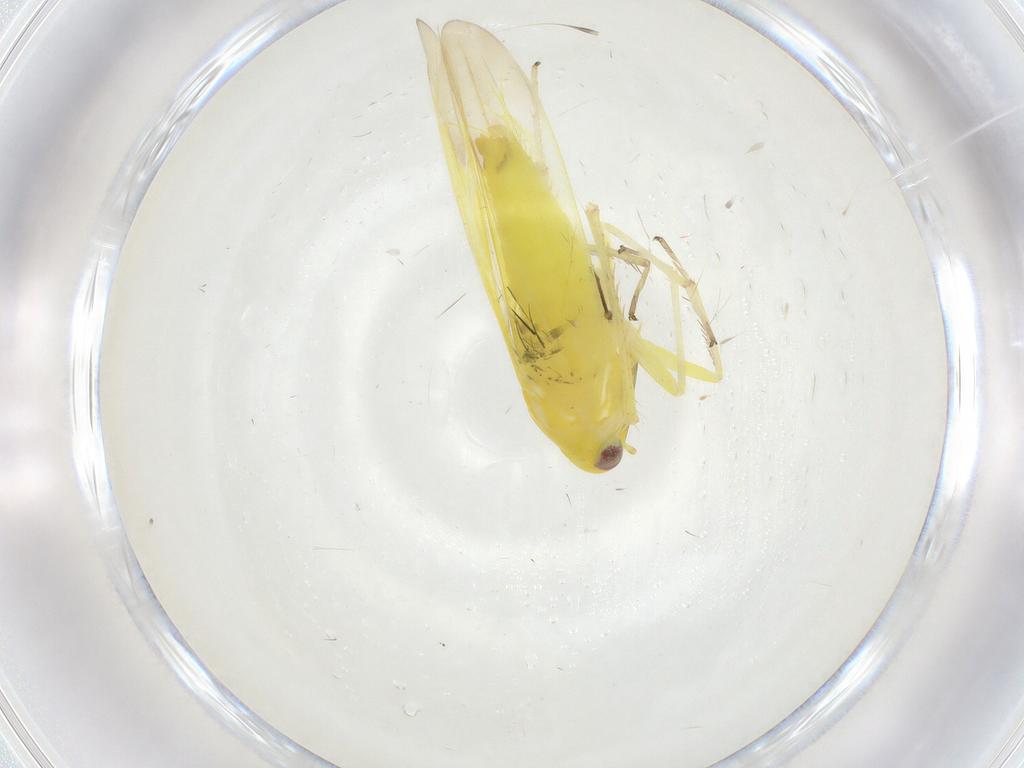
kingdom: Animalia
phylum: Arthropoda
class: Insecta
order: Hemiptera
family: Cicadellidae
